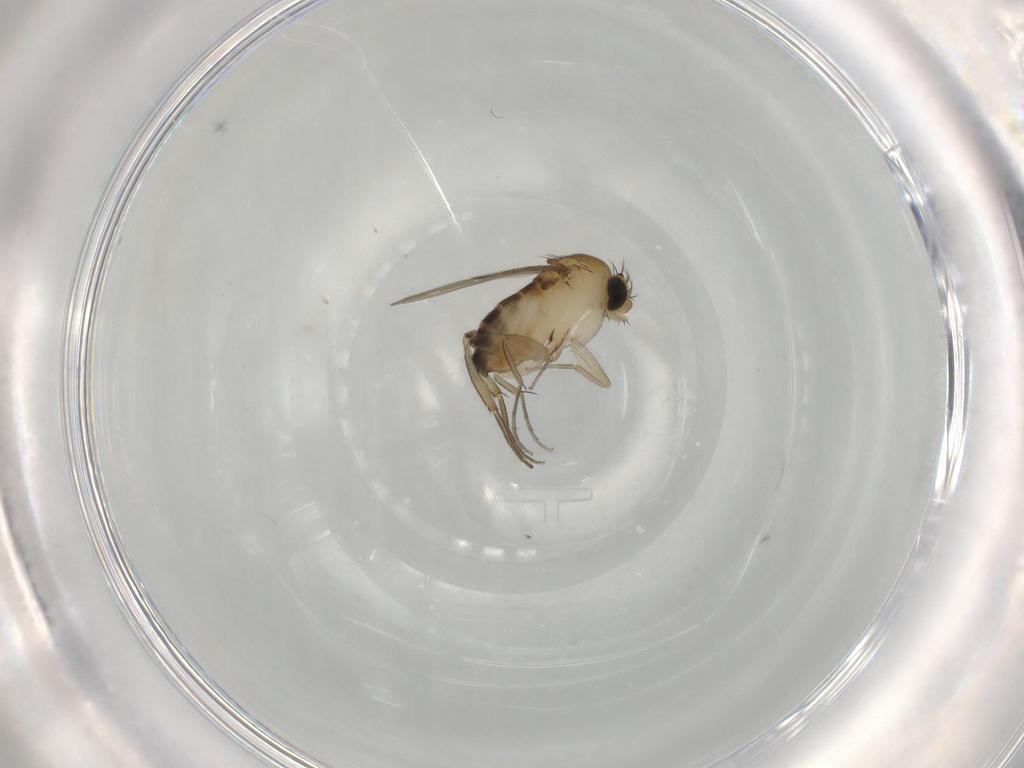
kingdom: Animalia
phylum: Arthropoda
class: Insecta
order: Diptera
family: Phoridae
